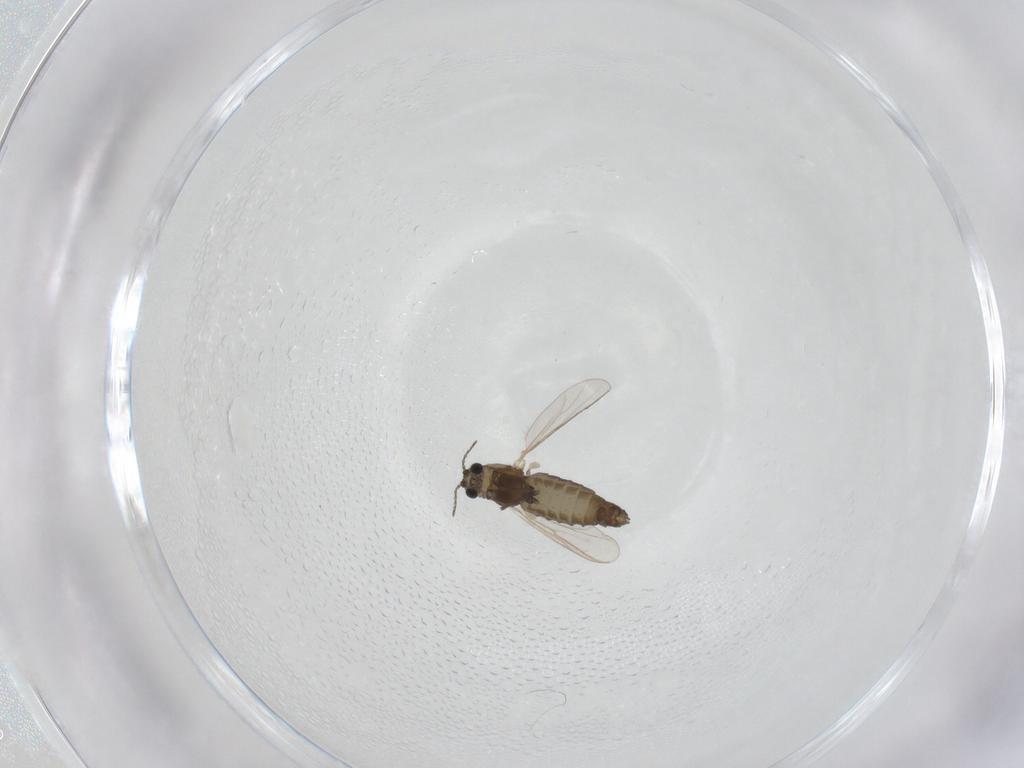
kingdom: Animalia
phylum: Arthropoda
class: Insecta
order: Diptera
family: Chironomidae
